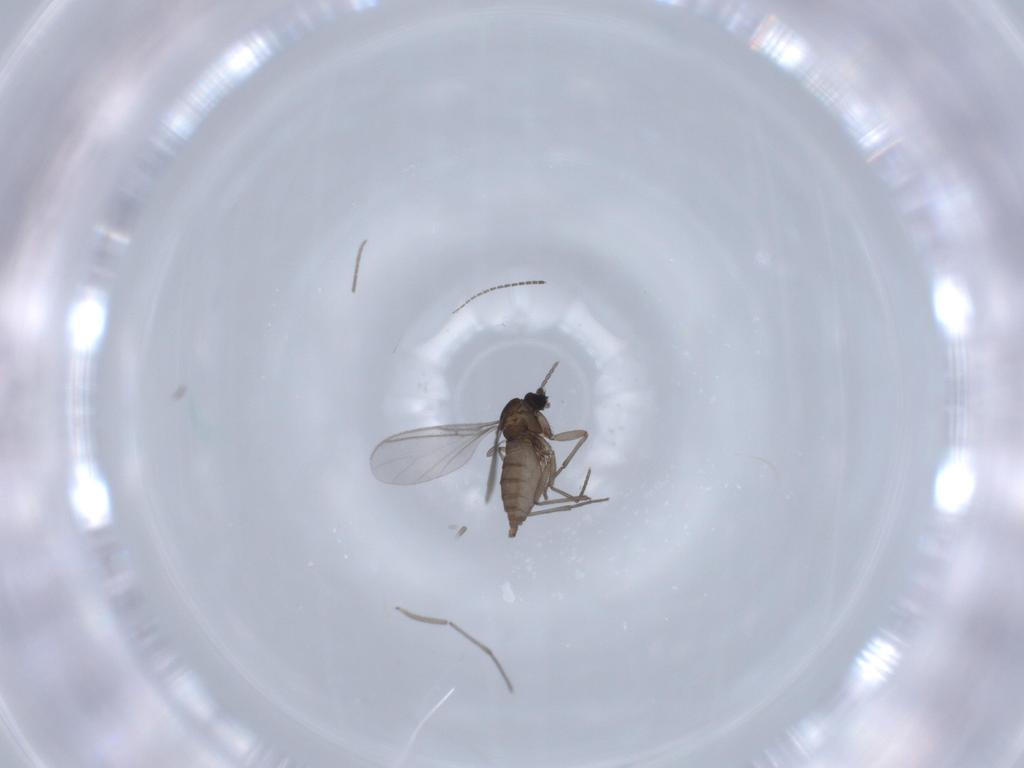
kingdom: Animalia
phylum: Arthropoda
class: Insecta
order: Diptera
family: Sciaridae
